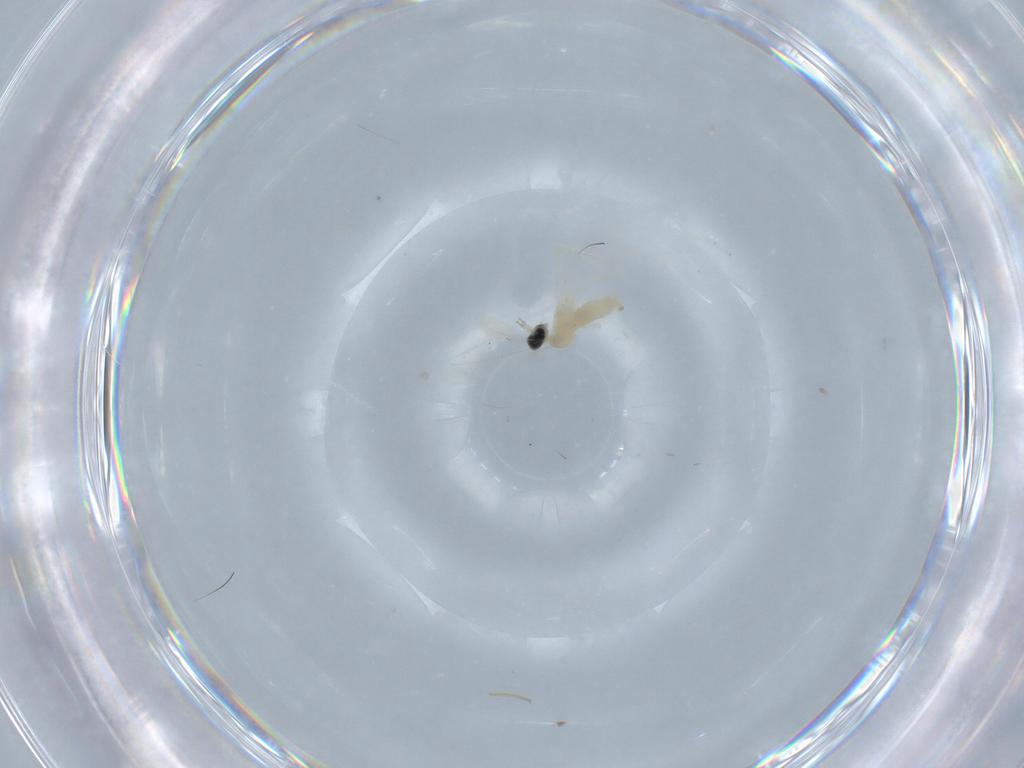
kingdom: Animalia
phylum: Arthropoda
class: Insecta
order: Diptera
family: Cecidomyiidae
